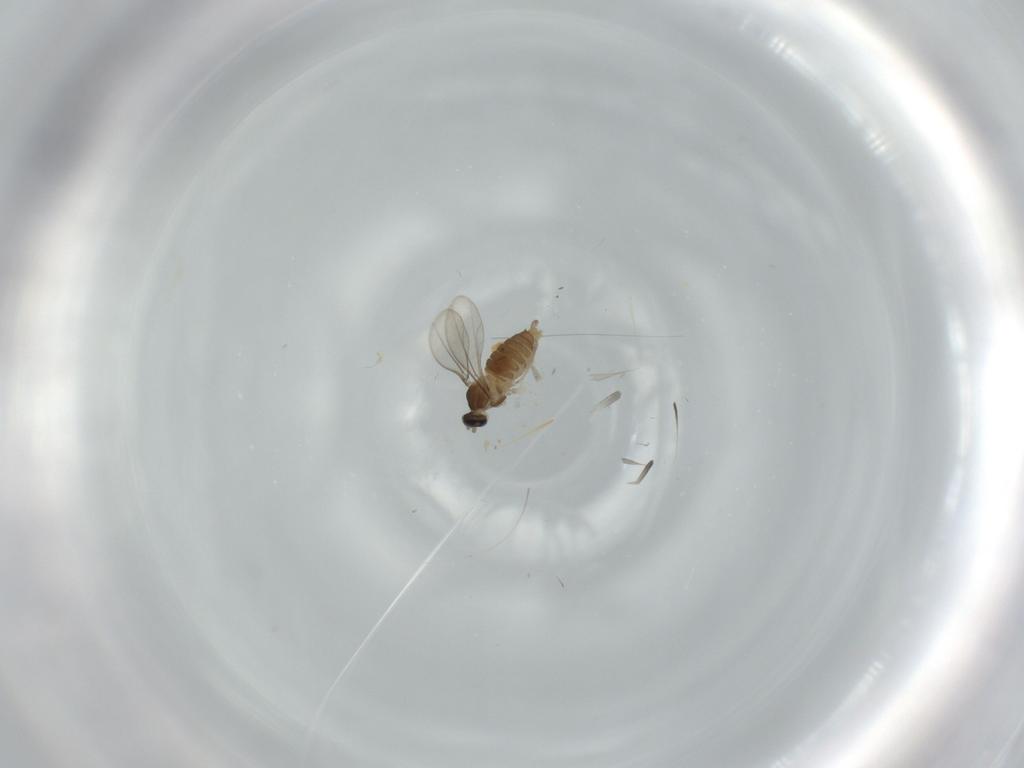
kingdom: Animalia
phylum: Arthropoda
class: Insecta
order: Diptera
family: Cecidomyiidae
